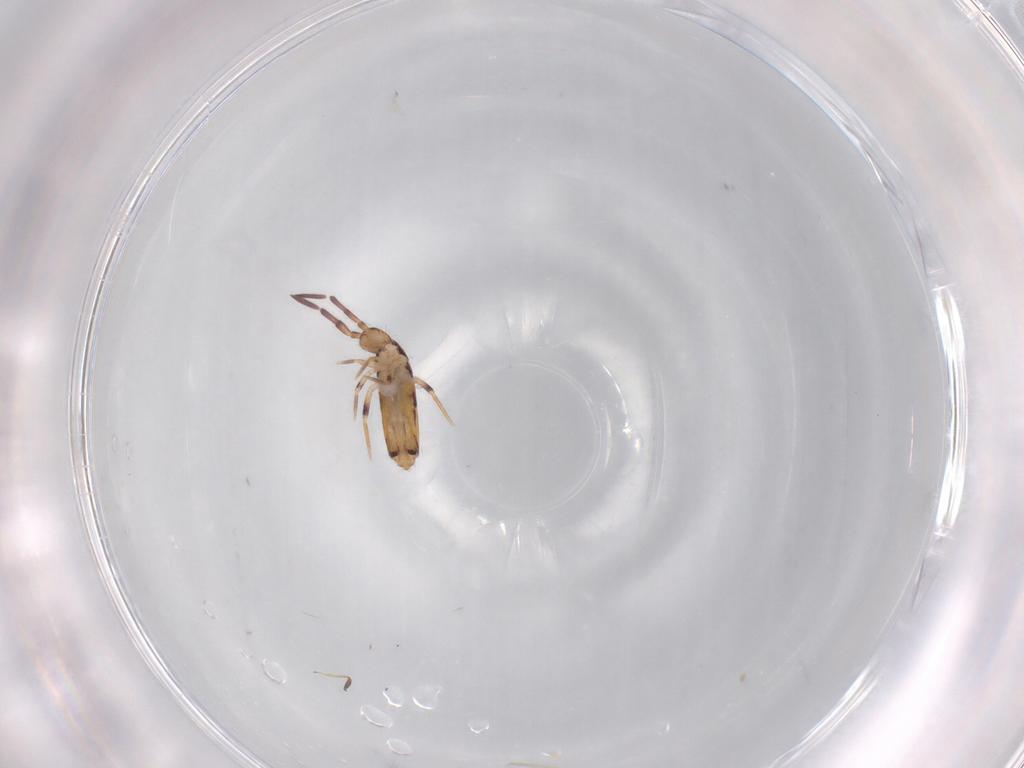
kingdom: Animalia
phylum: Arthropoda
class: Collembola
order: Entomobryomorpha
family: Entomobryidae
